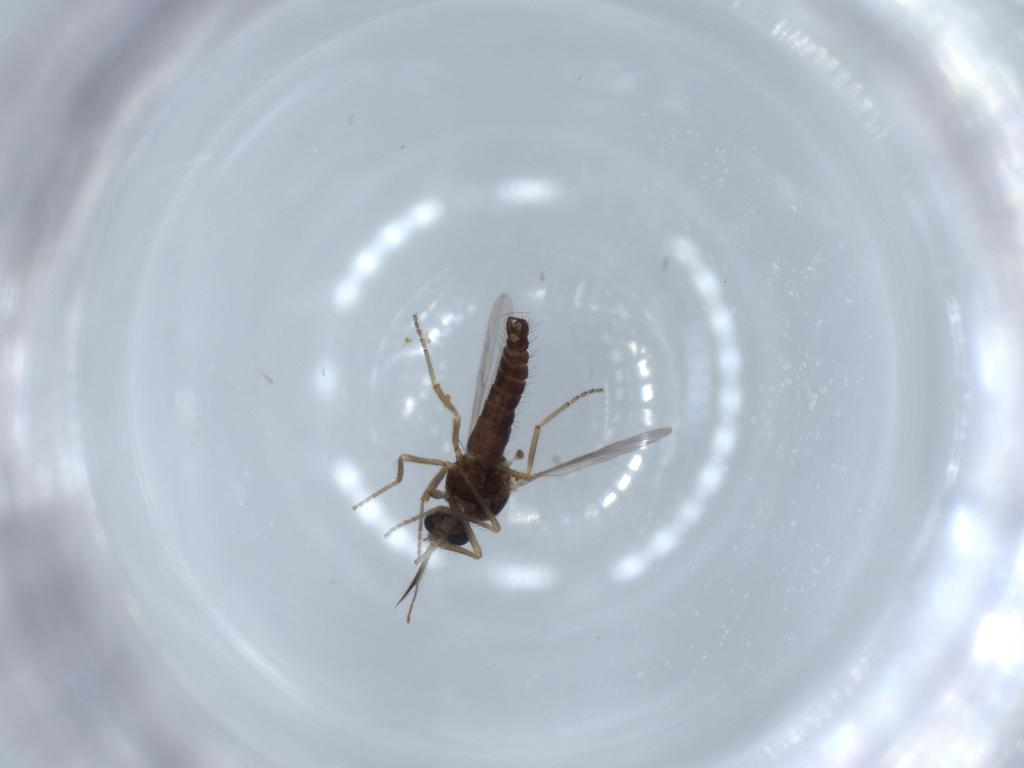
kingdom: Animalia
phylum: Arthropoda
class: Insecta
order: Diptera
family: Ceratopogonidae
